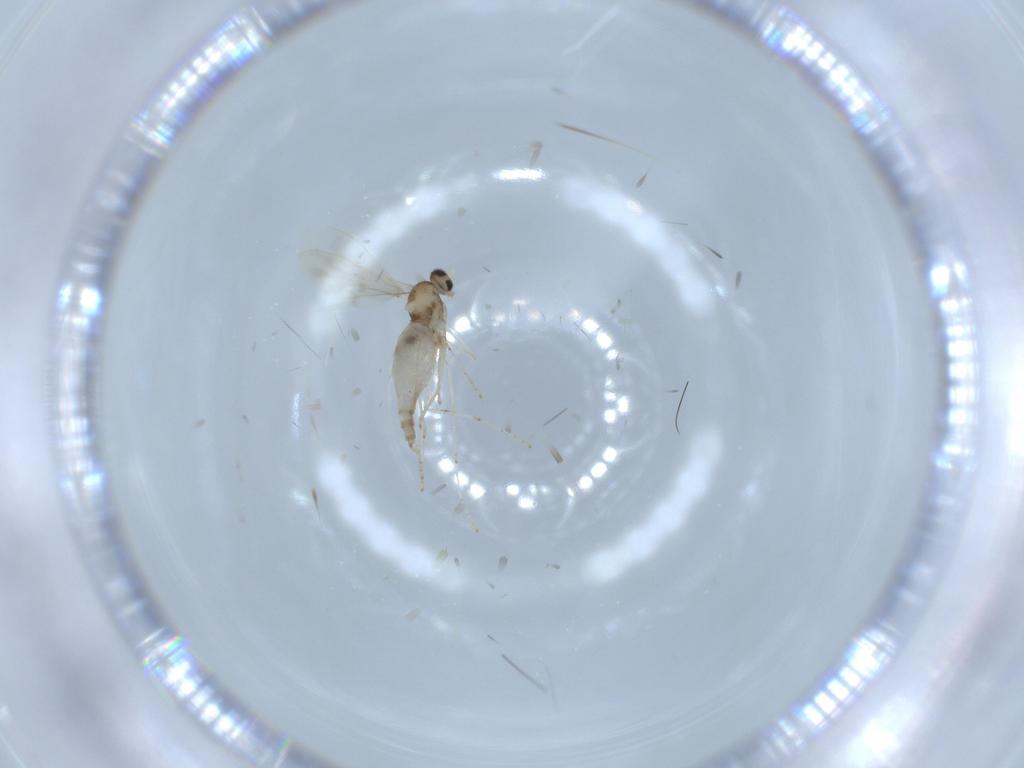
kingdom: Animalia
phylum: Arthropoda
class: Insecta
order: Diptera
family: Cecidomyiidae
